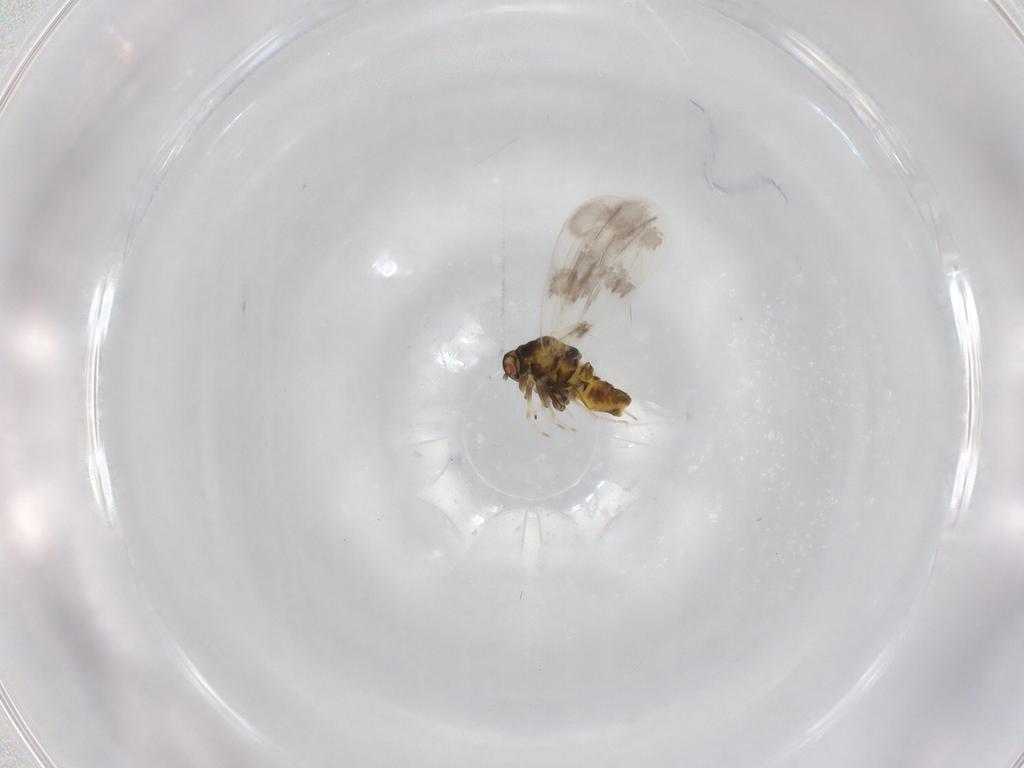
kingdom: Animalia
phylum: Arthropoda
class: Insecta
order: Hemiptera
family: Aleyrodidae
